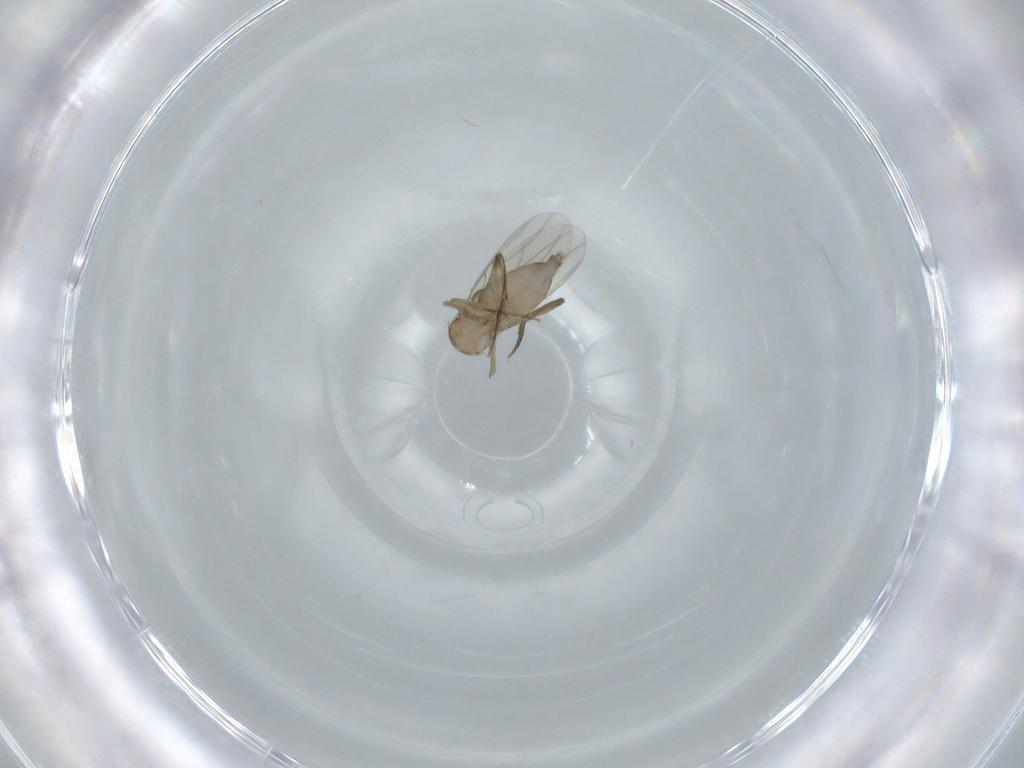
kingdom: Animalia
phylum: Arthropoda
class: Insecta
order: Diptera
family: Phoridae
